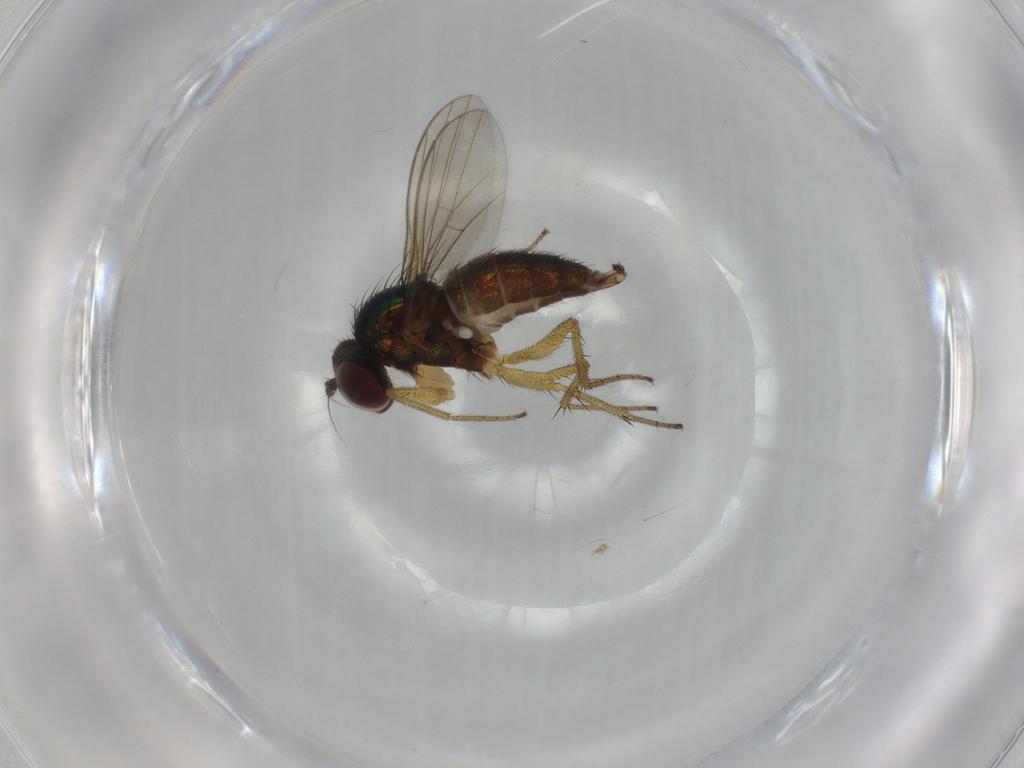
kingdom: Animalia
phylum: Arthropoda
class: Insecta
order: Diptera
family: Dolichopodidae
